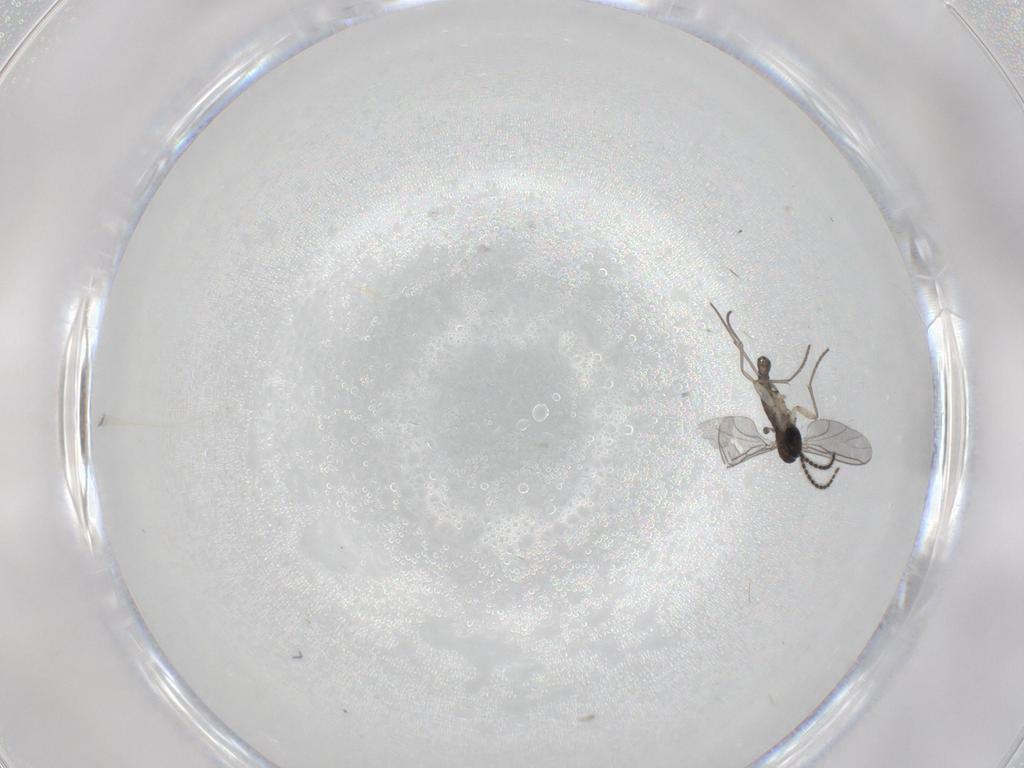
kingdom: Animalia
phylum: Arthropoda
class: Insecta
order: Diptera
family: Sciaridae
